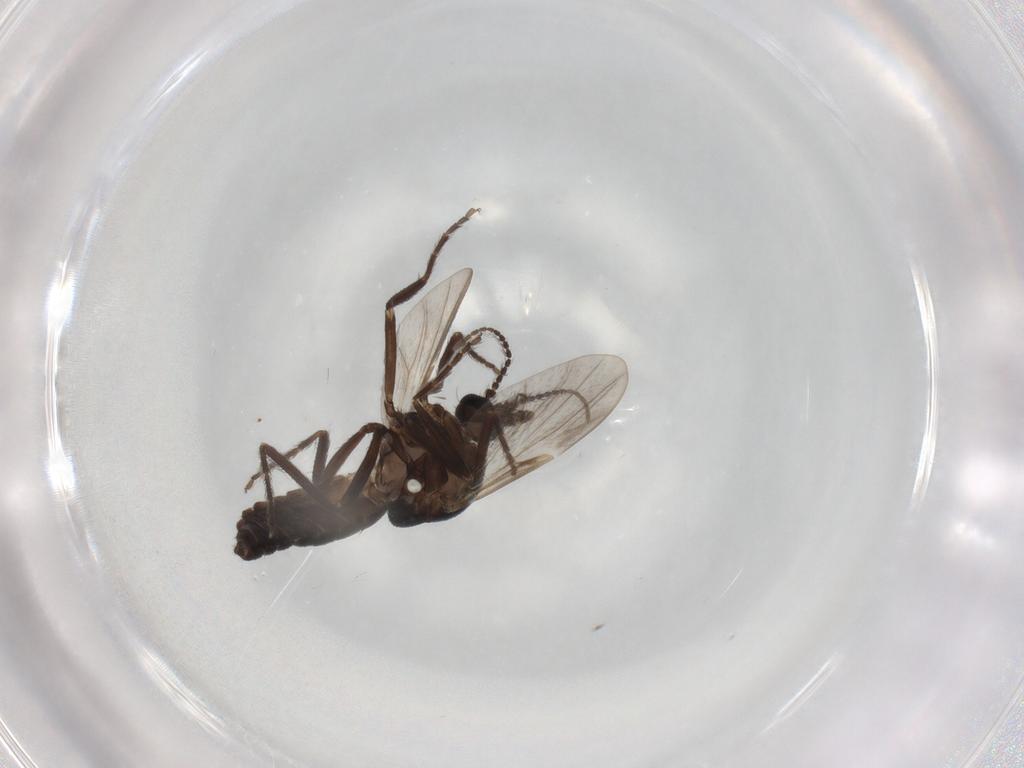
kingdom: Animalia
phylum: Arthropoda
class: Insecta
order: Diptera
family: Ceratopogonidae
